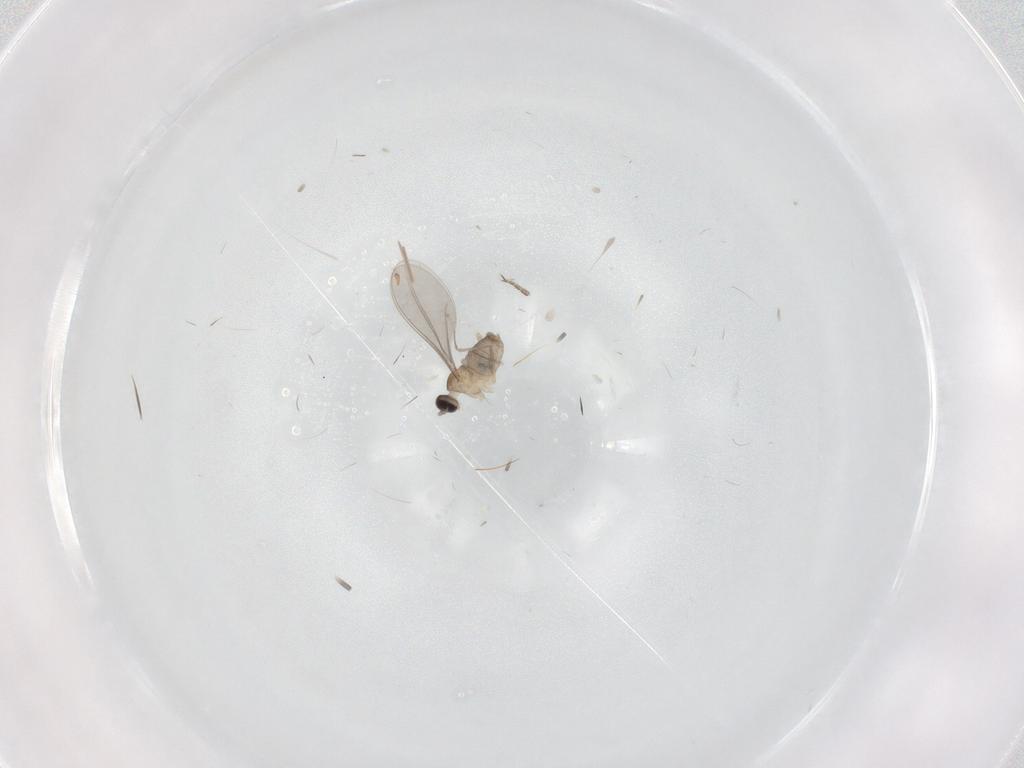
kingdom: Animalia
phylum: Arthropoda
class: Insecta
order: Diptera
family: Cecidomyiidae
